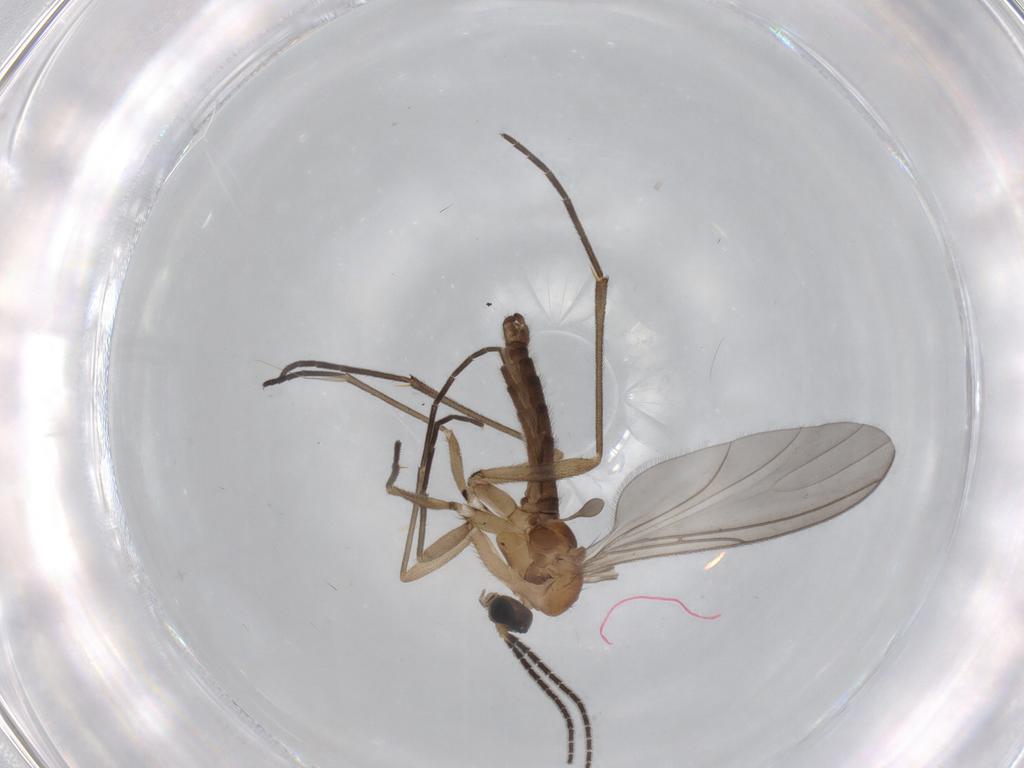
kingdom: Animalia
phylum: Arthropoda
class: Insecta
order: Diptera
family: Sciaridae
